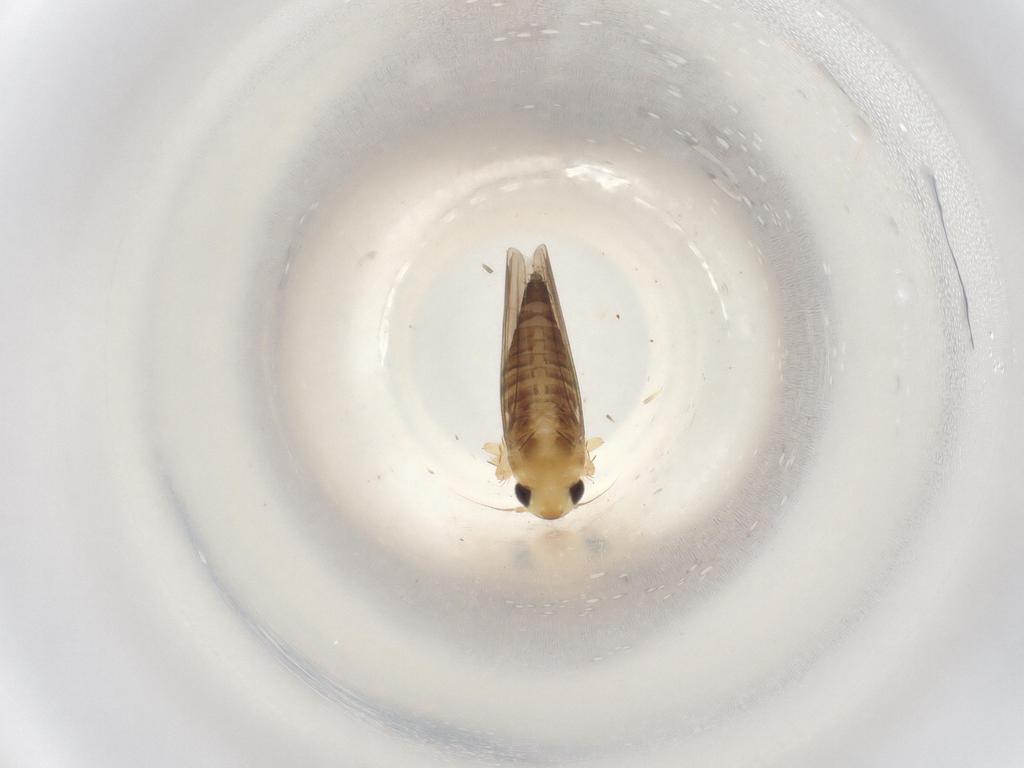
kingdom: Animalia
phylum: Arthropoda
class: Insecta
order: Hemiptera
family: Cicadellidae
